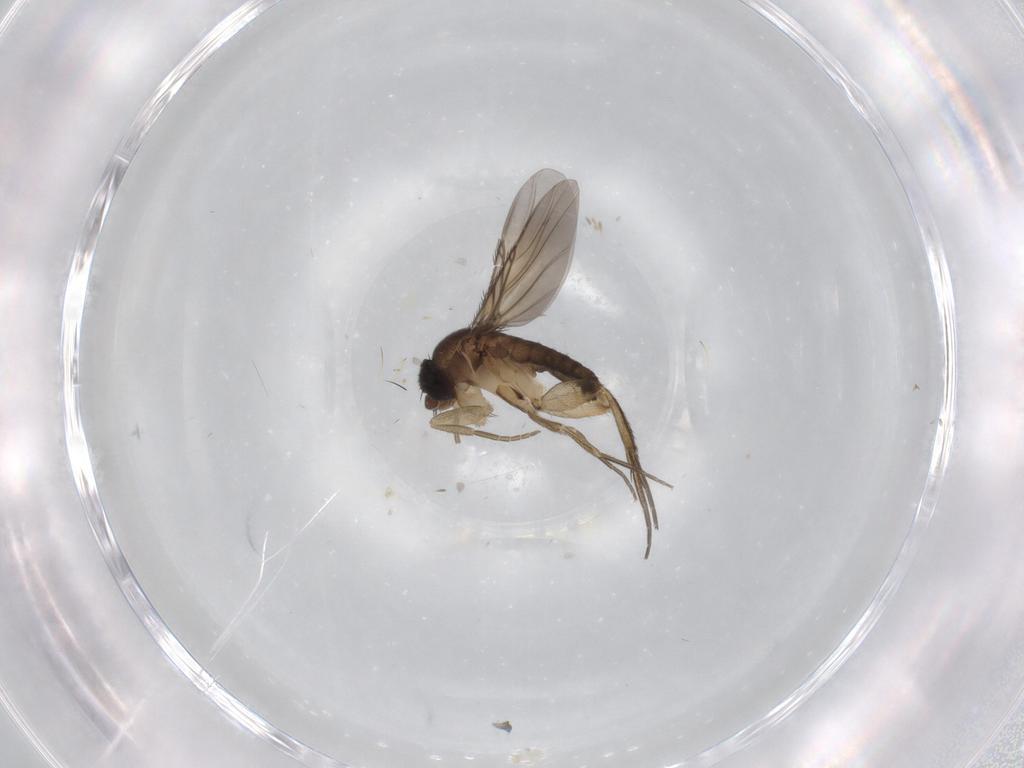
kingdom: Animalia
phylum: Arthropoda
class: Insecta
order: Diptera
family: Phoridae
